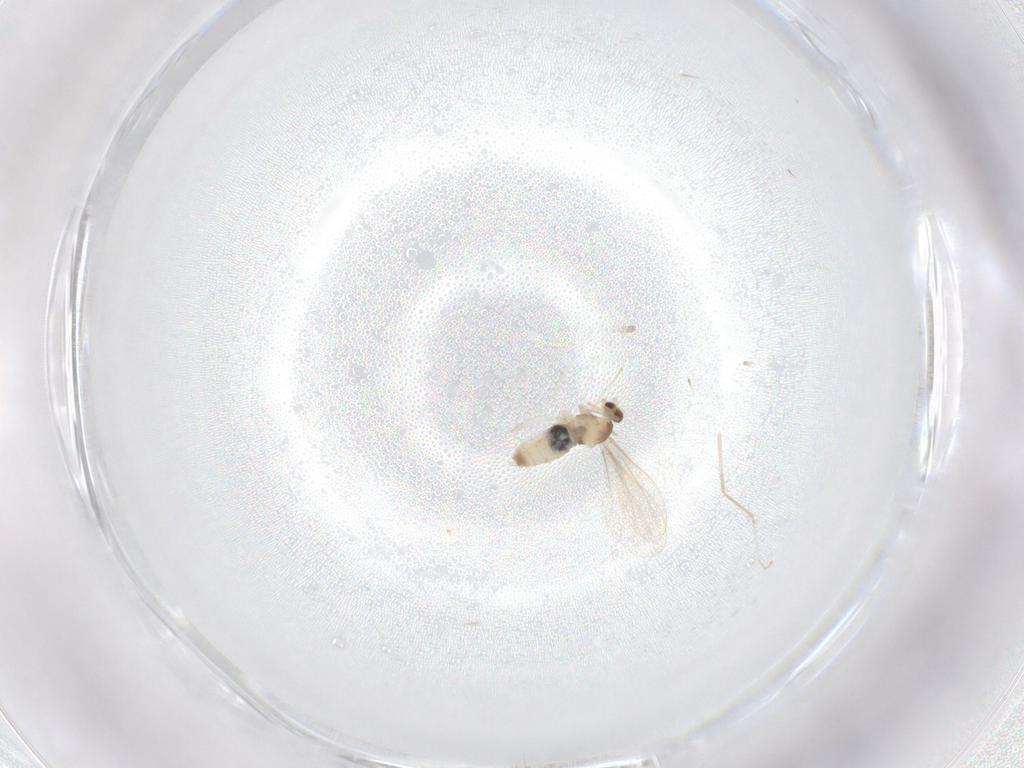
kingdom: Animalia
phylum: Arthropoda
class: Insecta
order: Diptera
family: Cecidomyiidae
